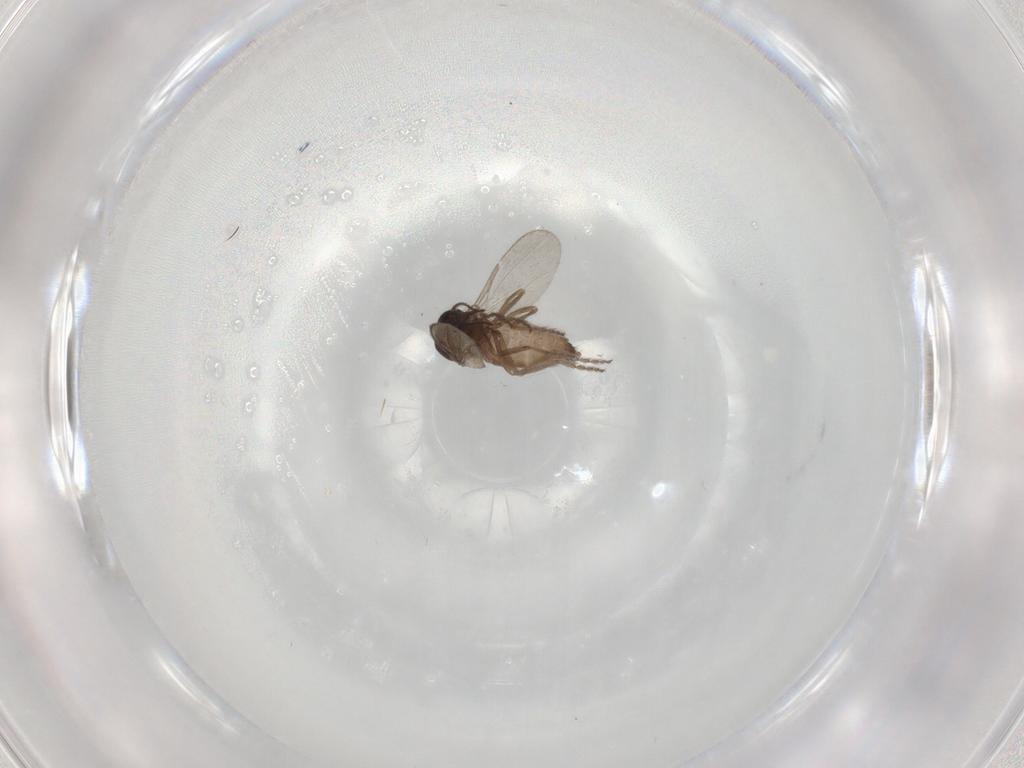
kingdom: Animalia
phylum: Arthropoda
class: Insecta
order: Diptera
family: Ceratopogonidae
